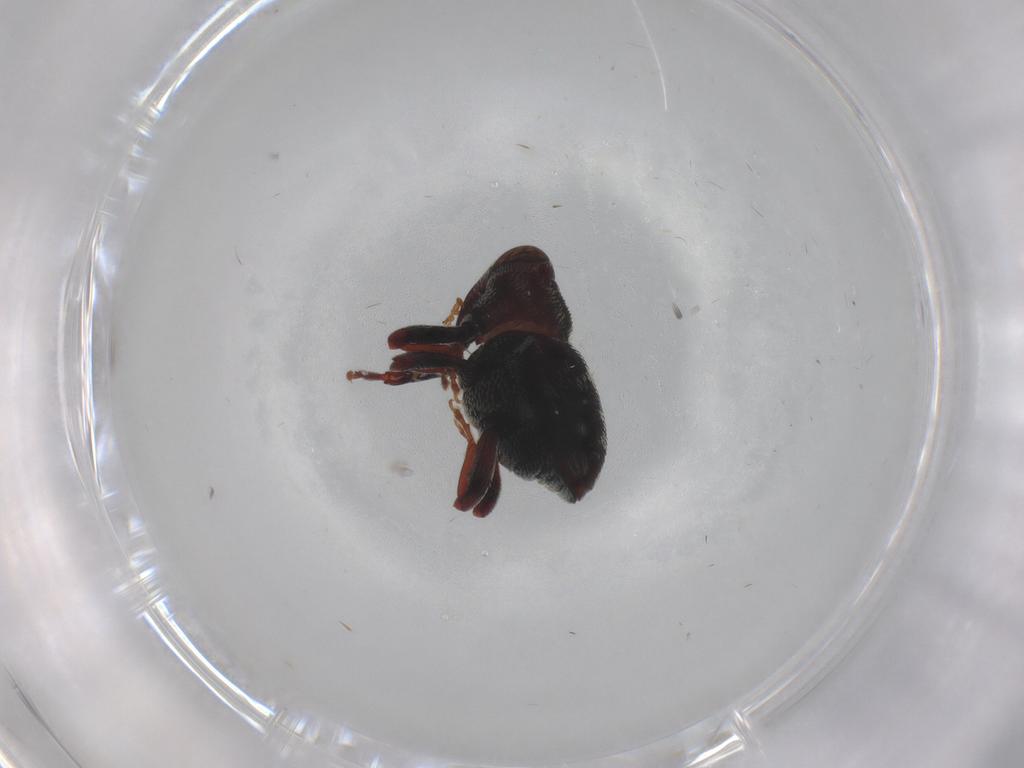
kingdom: Animalia
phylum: Arthropoda
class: Insecta
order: Coleoptera
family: Curculionidae
